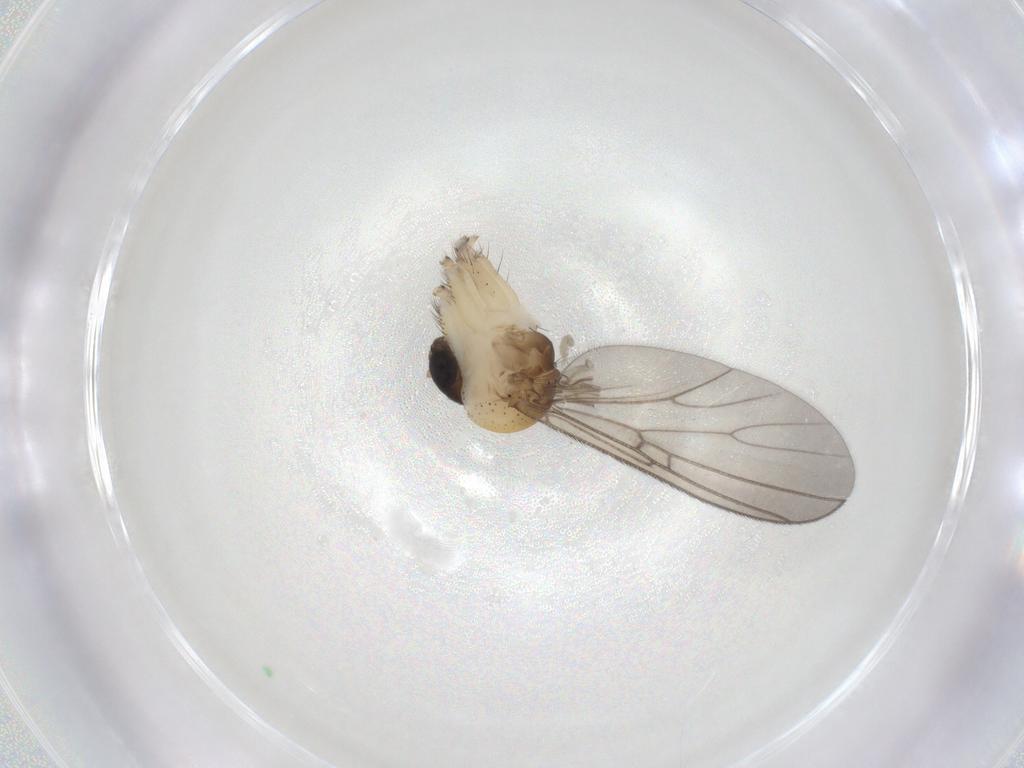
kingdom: Animalia
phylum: Arthropoda
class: Insecta
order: Diptera
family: Mycetophilidae
